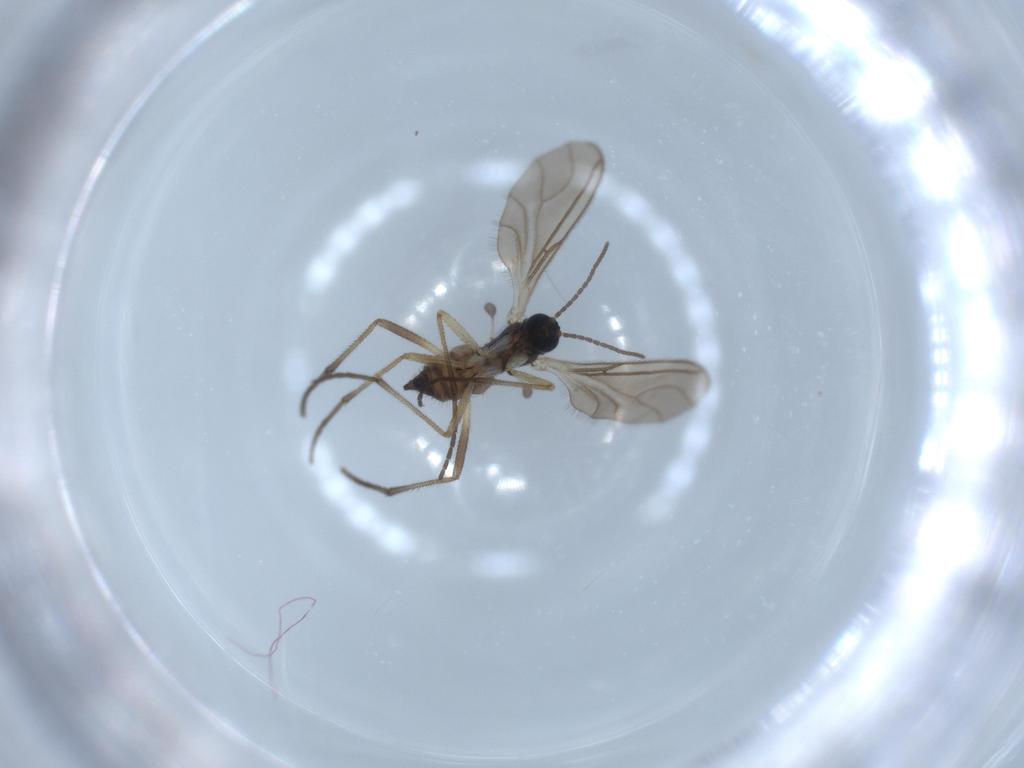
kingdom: Animalia
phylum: Arthropoda
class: Insecta
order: Diptera
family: Sciaridae
